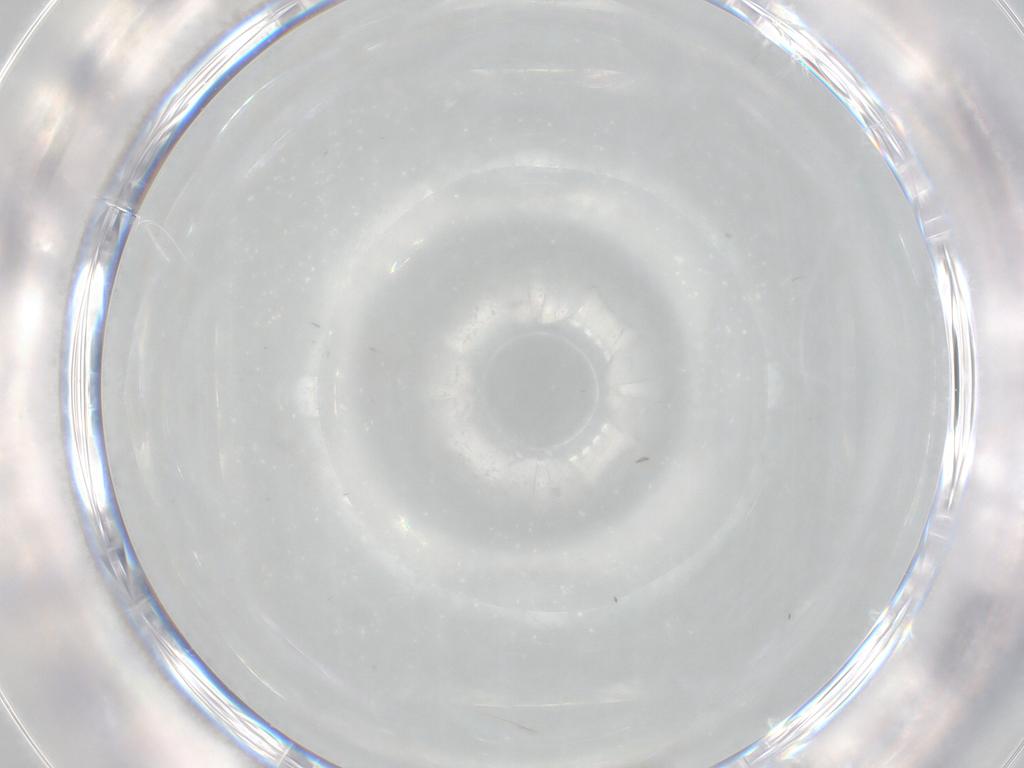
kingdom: Animalia
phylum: Arthropoda
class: Insecta
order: Diptera
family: Ceratopogonidae
